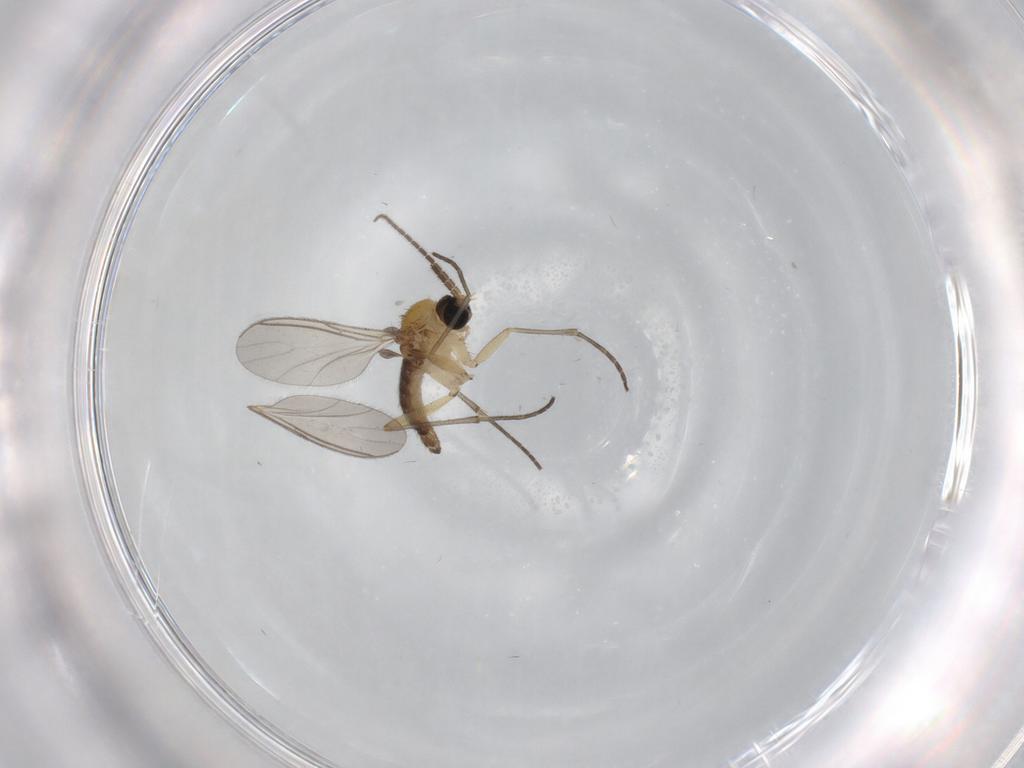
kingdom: Animalia
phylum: Arthropoda
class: Insecta
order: Diptera
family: Sciaridae
